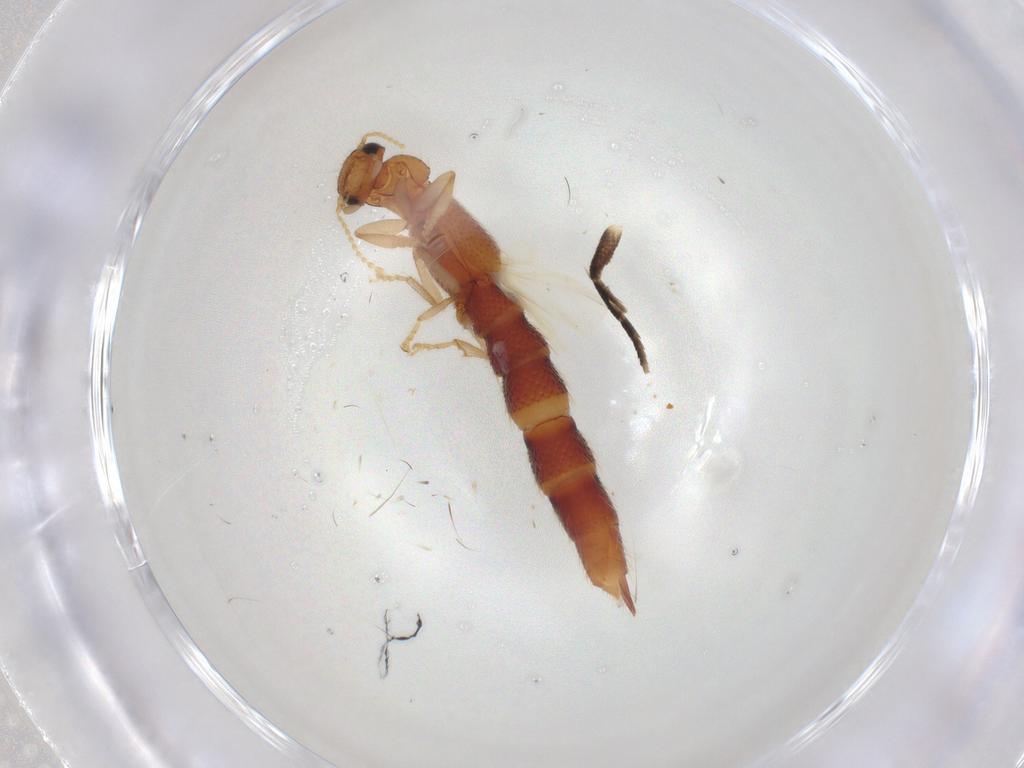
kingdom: Animalia
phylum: Arthropoda
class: Insecta
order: Coleoptera
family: Staphylinidae
